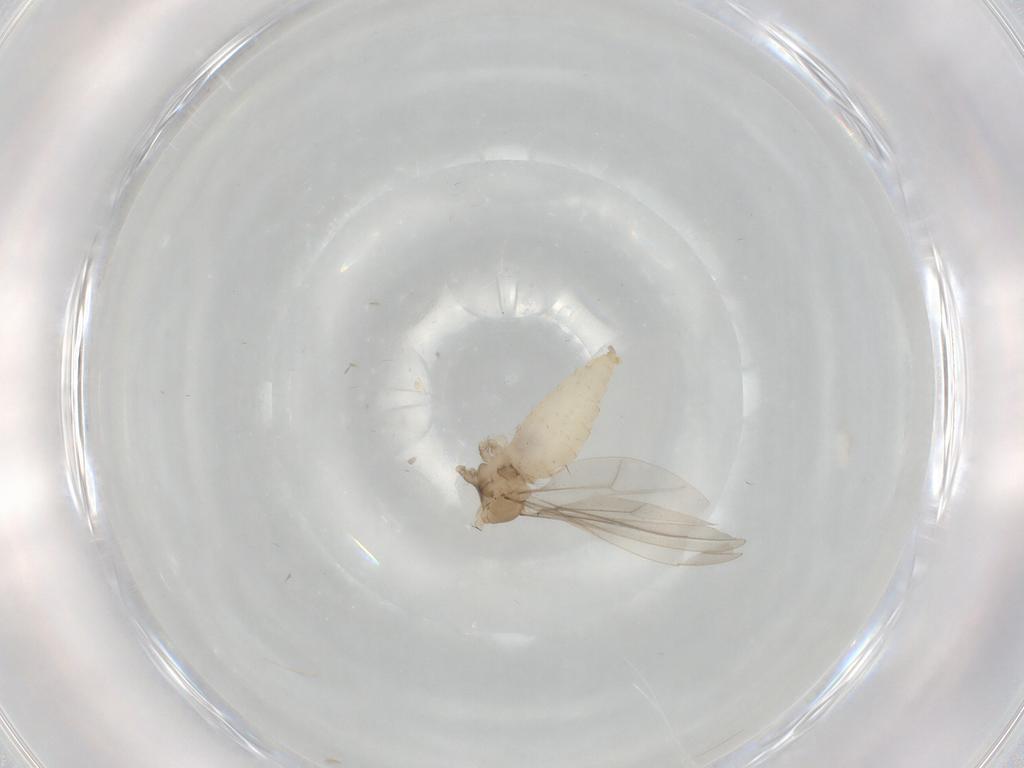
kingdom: Animalia
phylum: Arthropoda
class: Insecta
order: Diptera
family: Cecidomyiidae
